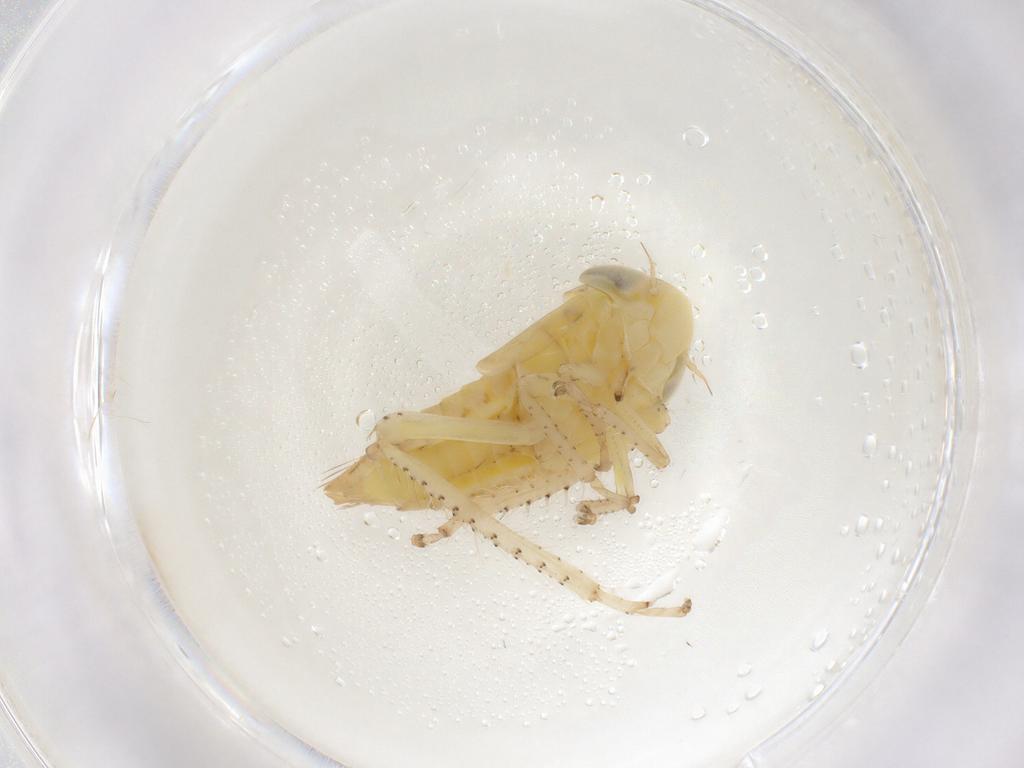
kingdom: Animalia
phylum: Arthropoda
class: Insecta
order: Hemiptera
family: Cicadellidae
